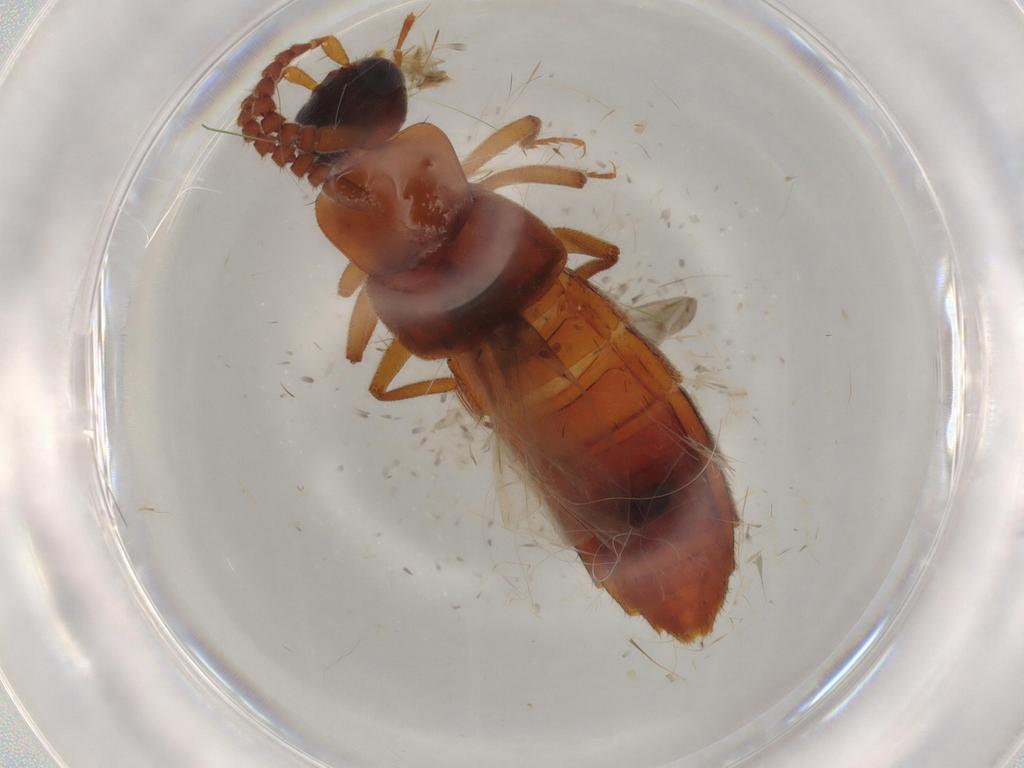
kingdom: Animalia
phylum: Arthropoda
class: Insecta
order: Coleoptera
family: Staphylinidae
